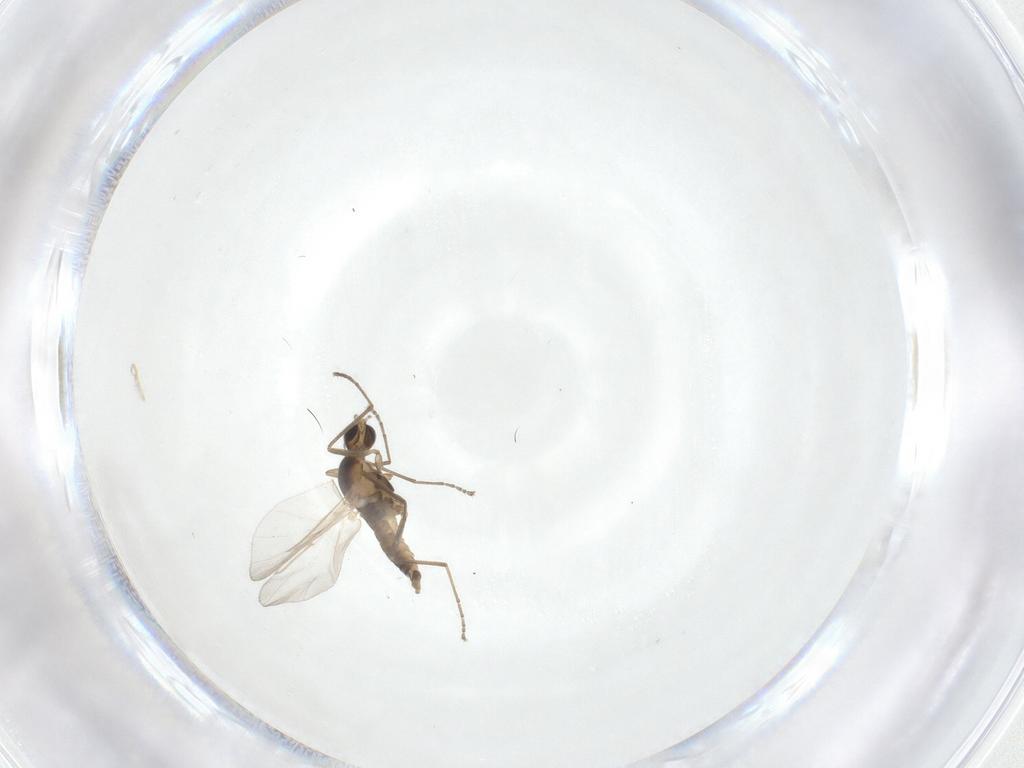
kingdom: Animalia
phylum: Arthropoda
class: Insecta
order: Diptera
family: Cecidomyiidae
